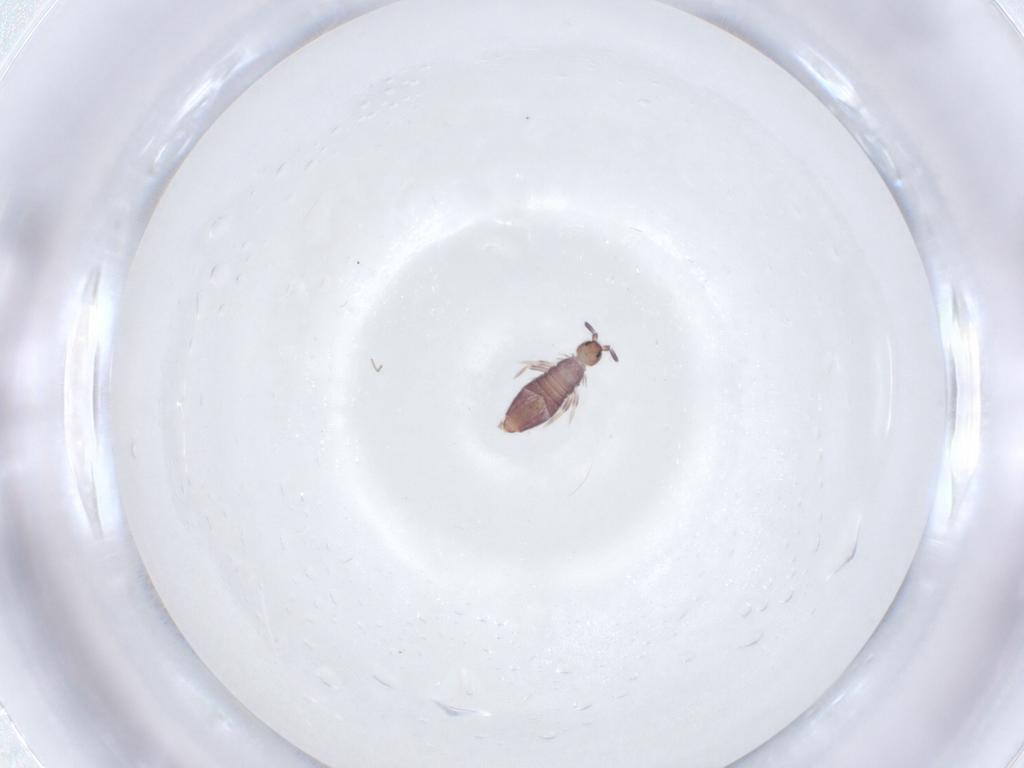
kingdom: Animalia
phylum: Arthropoda
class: Collembola
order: Entomobryomorpha
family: Entomobryidae
